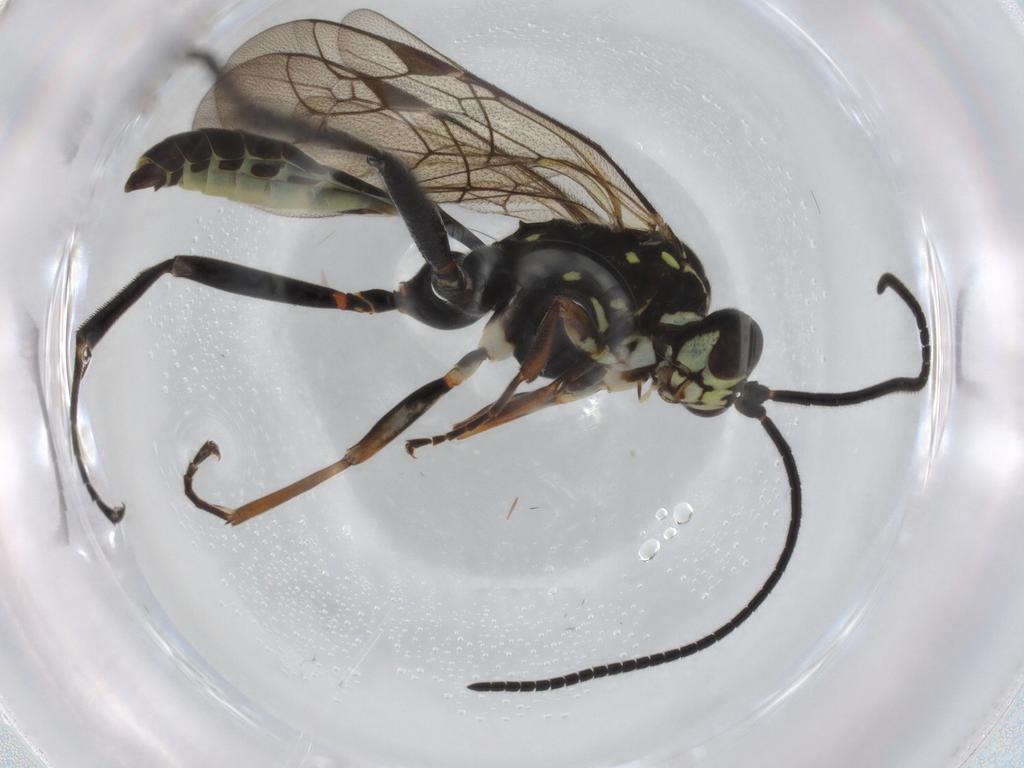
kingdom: Animalia
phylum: Arthropoda
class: Insecta
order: Hymenoptera
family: Ichneumonidae
